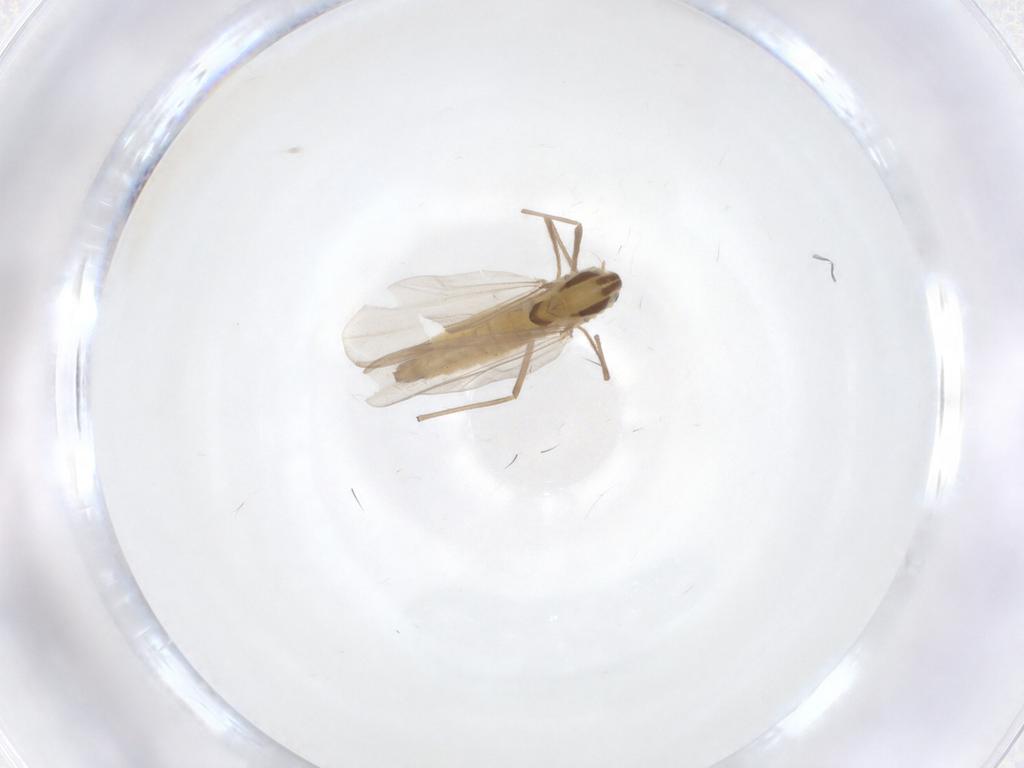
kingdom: Animalia
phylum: Arthropoda
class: Insecta
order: Diptera
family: Chironomidae
